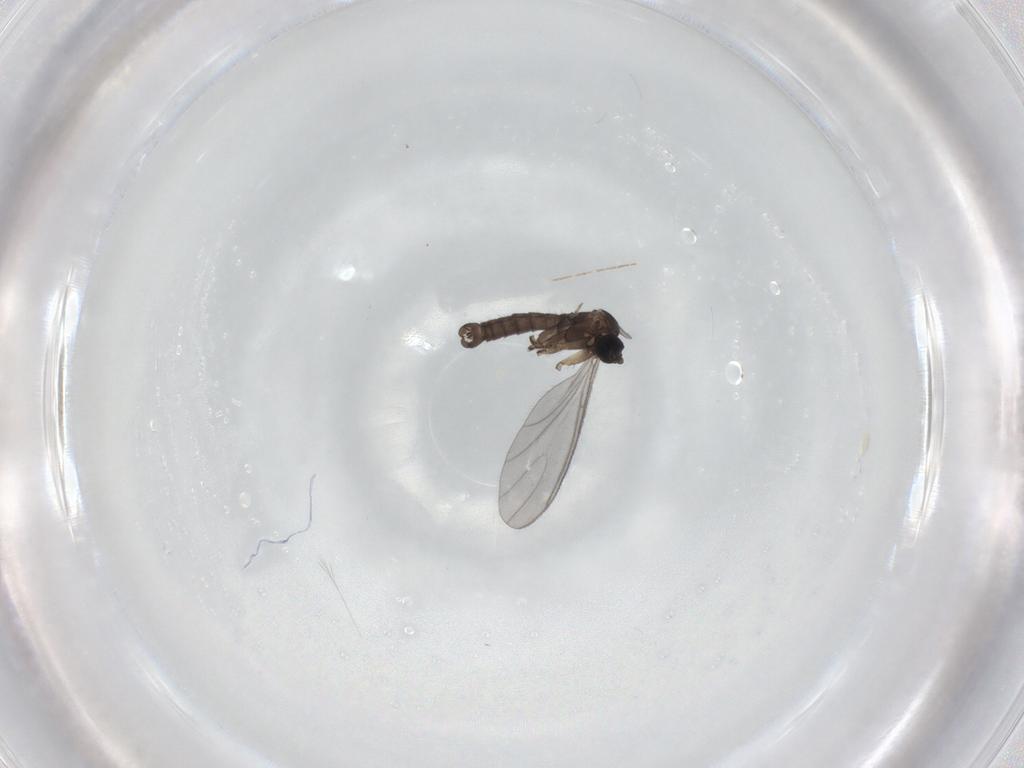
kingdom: Animalia
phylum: Arthropoda
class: Insecta
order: Diptera
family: Sciaridae
